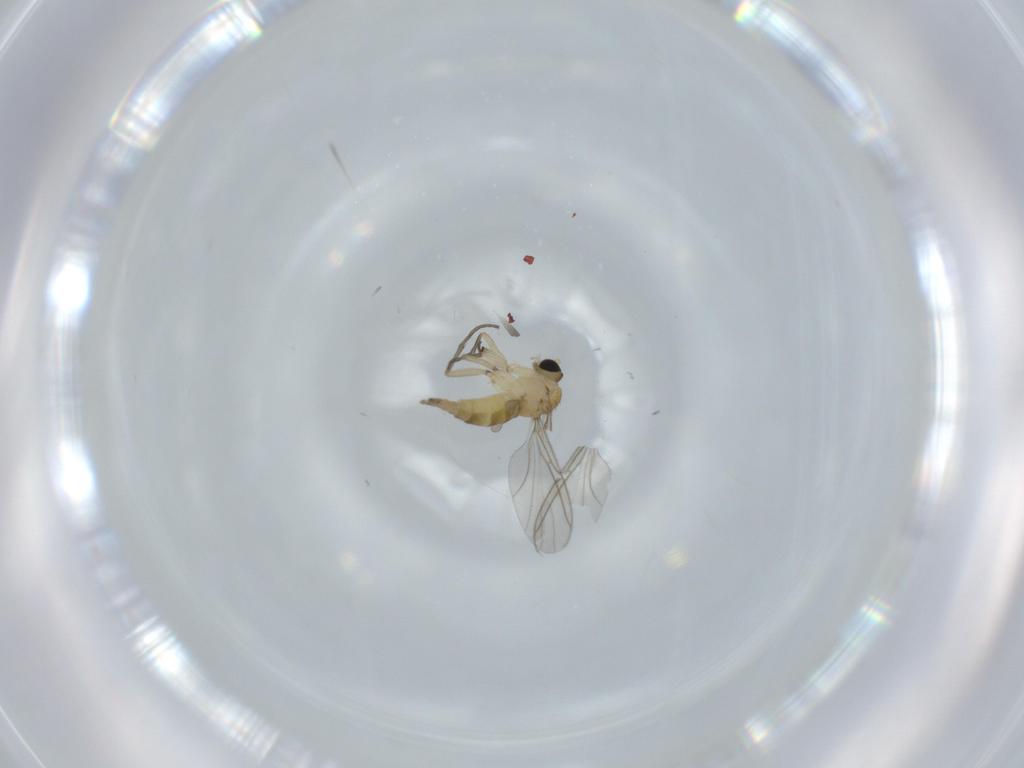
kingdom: Animalia
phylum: Arthropoda
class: Insecta
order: Diptera
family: Sciaridae
